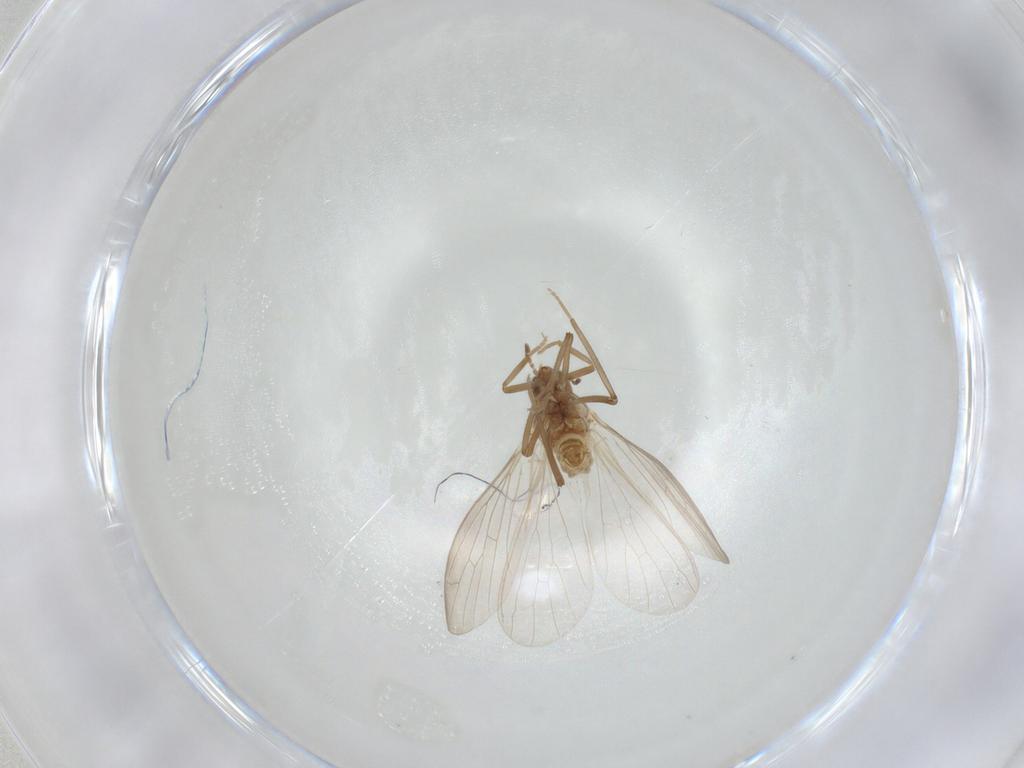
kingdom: Animalia
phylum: Arthropoda
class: Insecta
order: Neuroptera
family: Coniopterygidae
